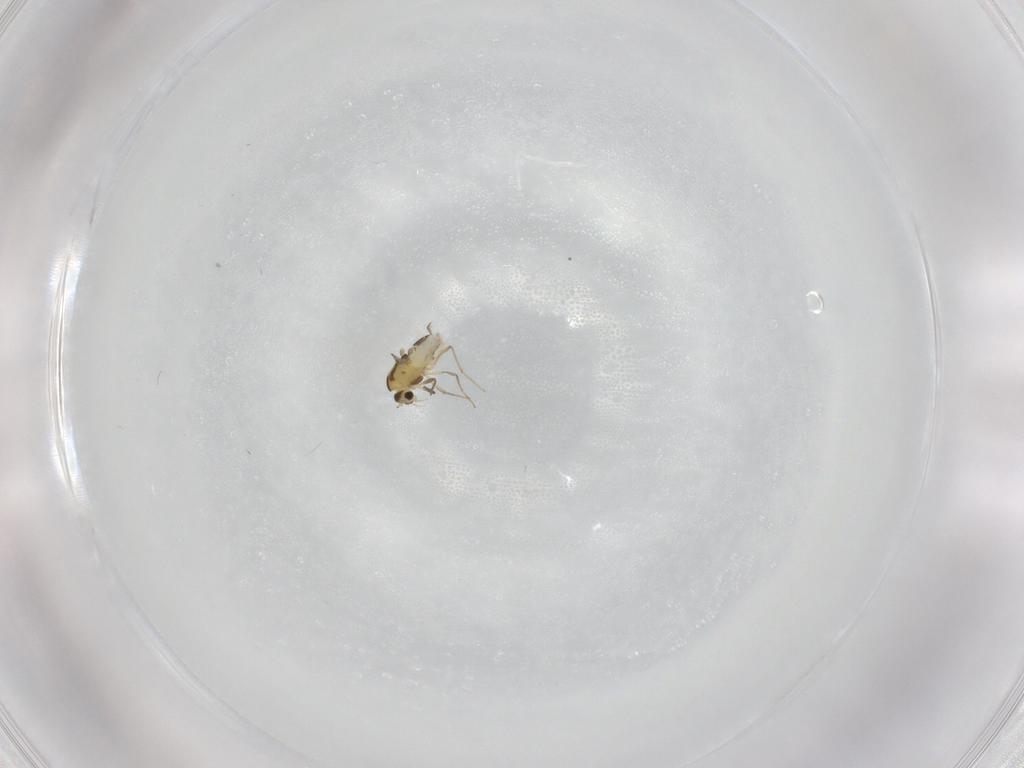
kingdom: Animalia
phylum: Arthropoda
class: Insecta
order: Diptera
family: Chironomidae
